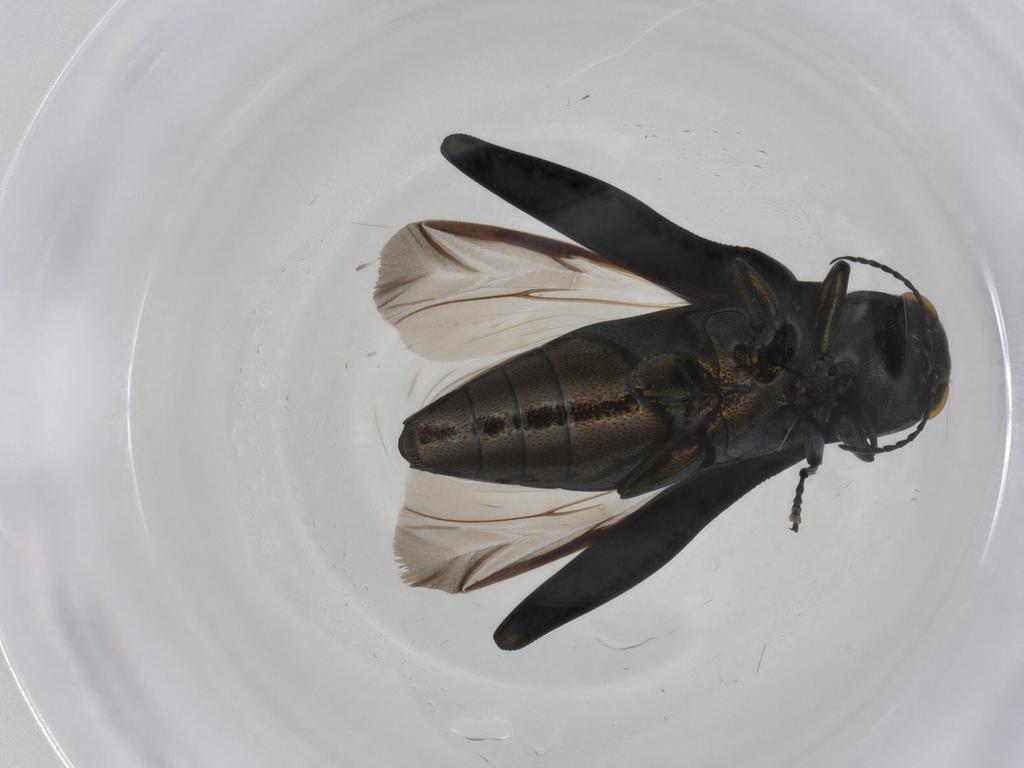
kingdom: Animalia
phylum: Arthropoda
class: Insecta
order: Coleoptera
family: Buprestidae
